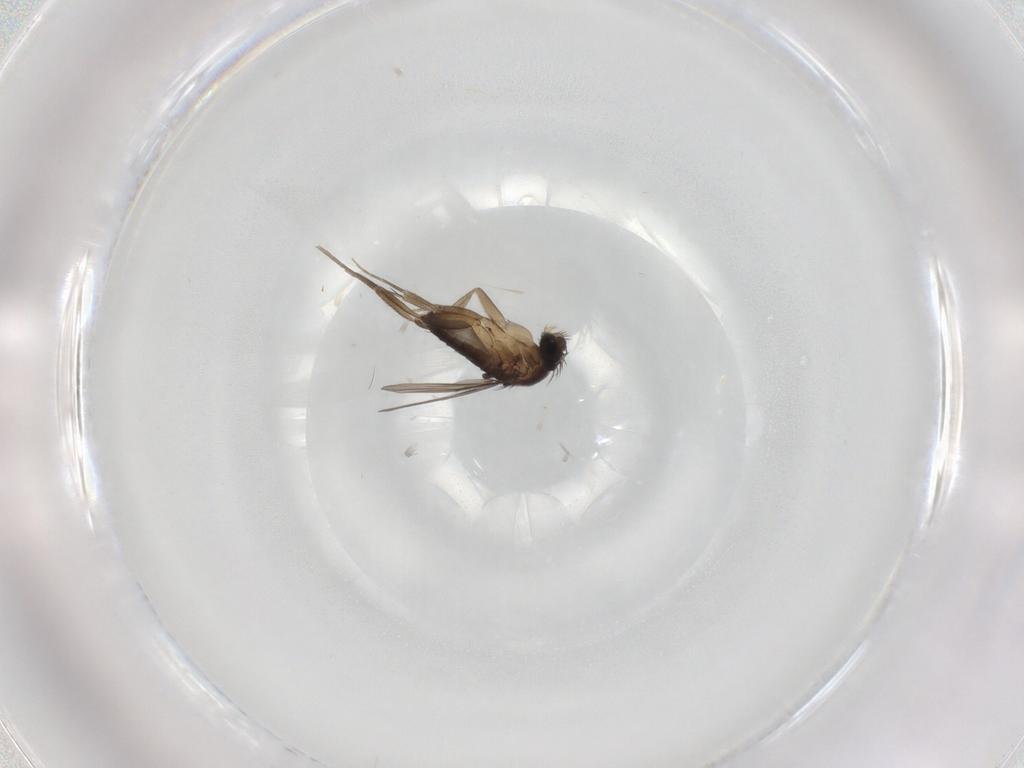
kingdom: Animalia
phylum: Arthropoda
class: Insecta
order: Diptera
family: Phoridae
